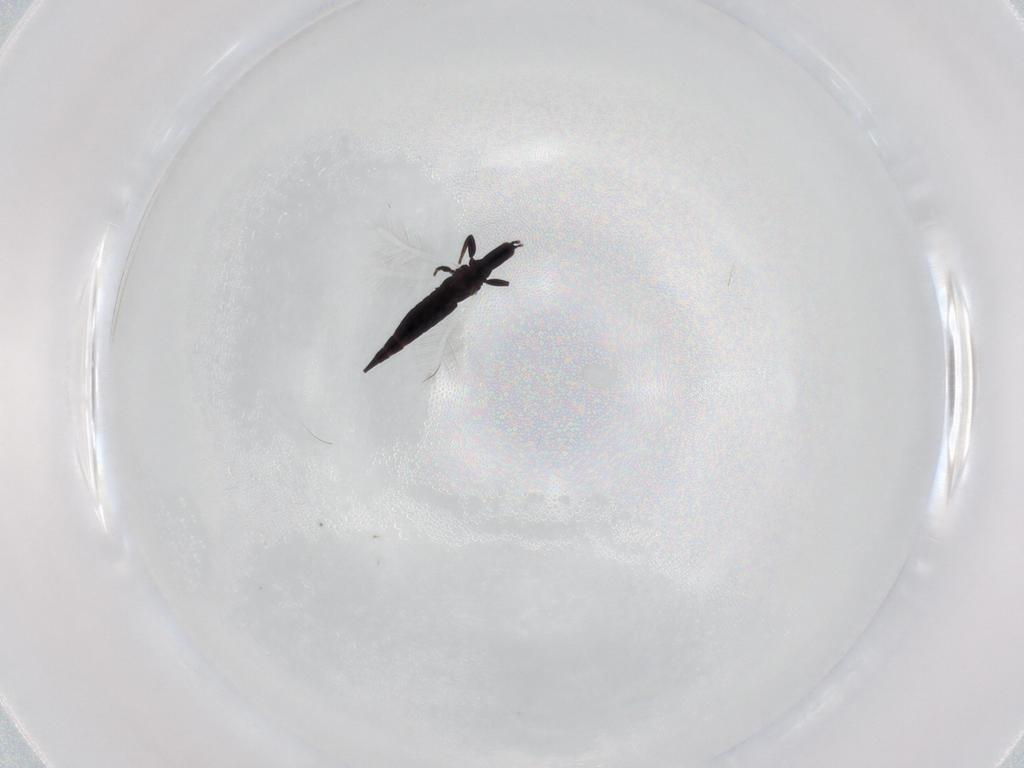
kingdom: Animalia
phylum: Arthropoda
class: Insecta
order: Thysanoptera
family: Phlaeothripidae
